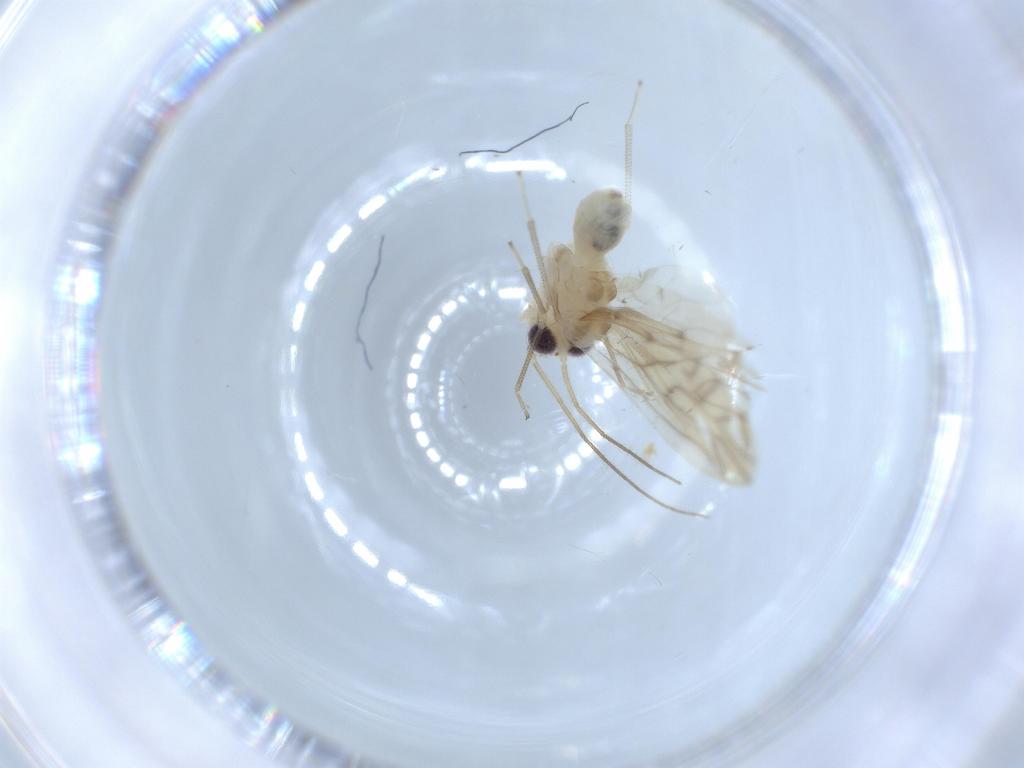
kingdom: Animalia
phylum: Arthropoda
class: Insecta
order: Psocodea
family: Caeciliusidae
